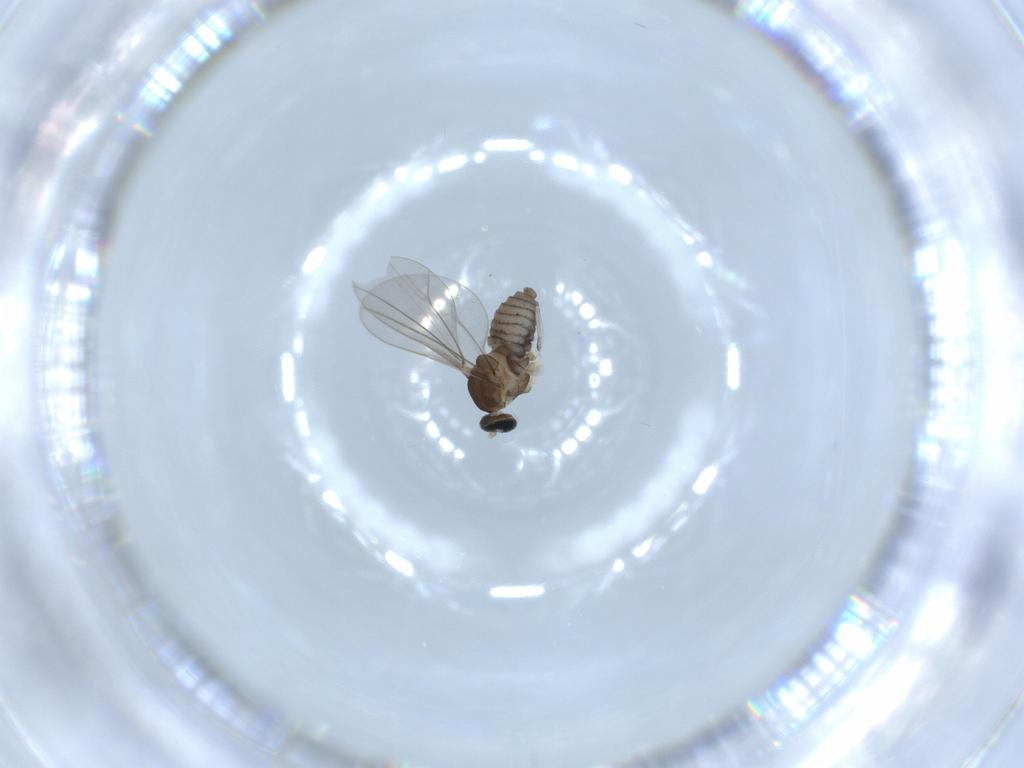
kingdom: Animalia
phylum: Arthropoda
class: Insecta
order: Diptera
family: Cecidomyiidae
